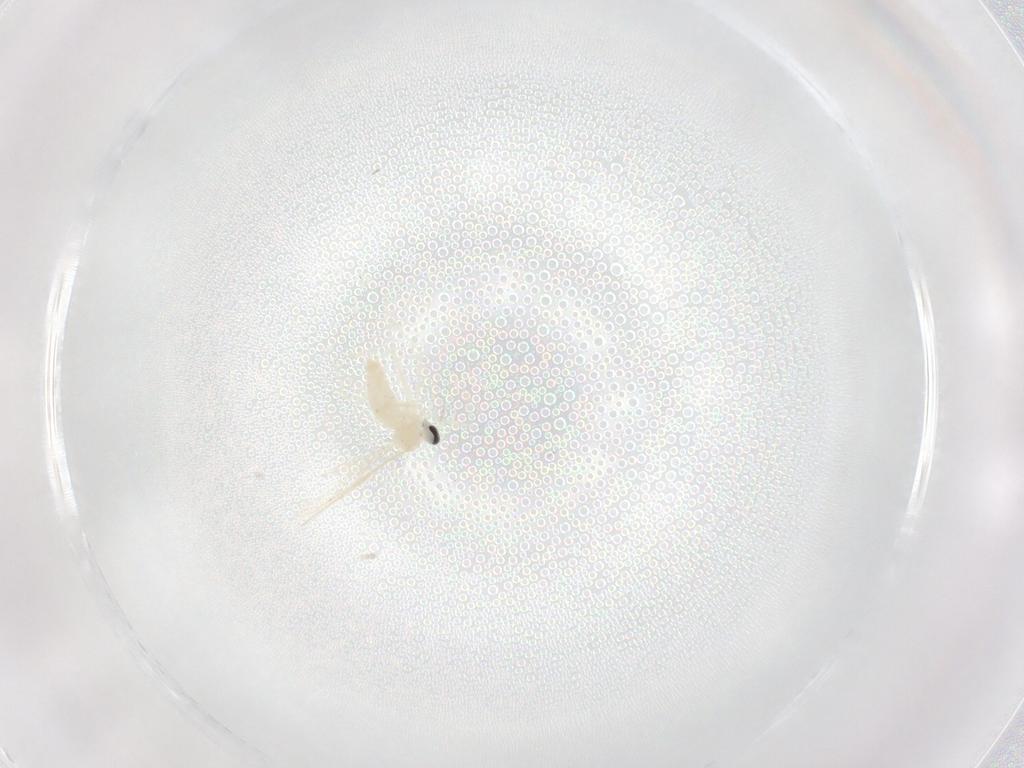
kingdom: Animalia
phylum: Arthropoda
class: Insecta
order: Diptera
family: Cecidomyiidae
